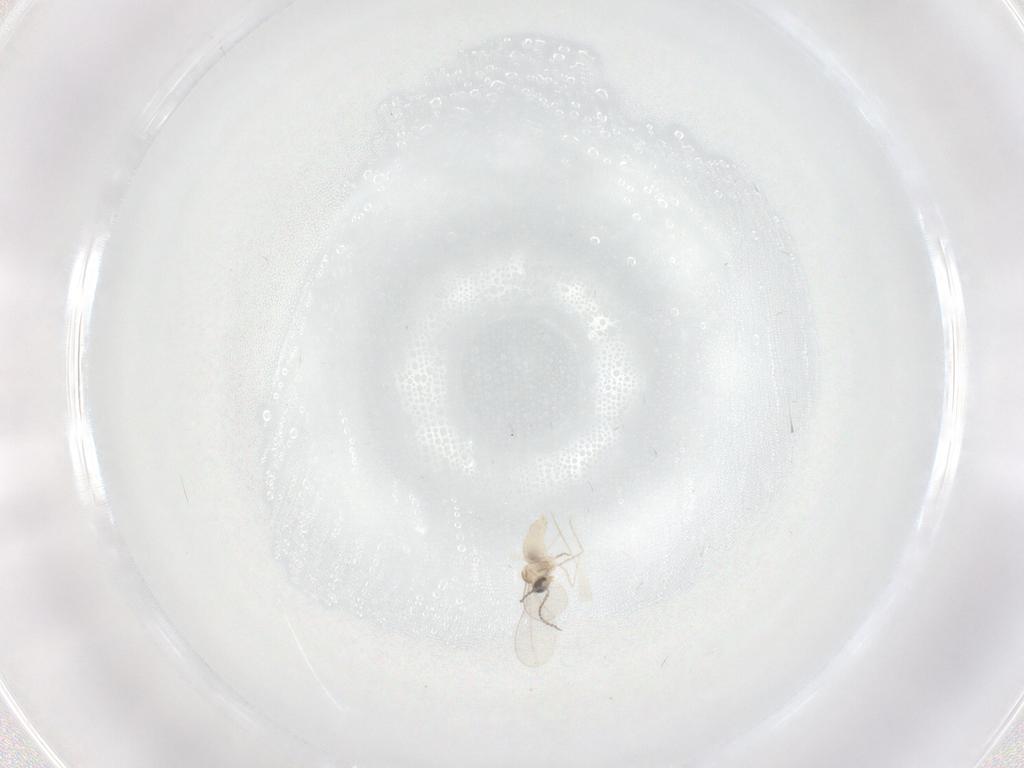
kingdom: Animalia
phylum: Arthropoda
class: Insecta
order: Diptera
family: Cecidomyiidae
